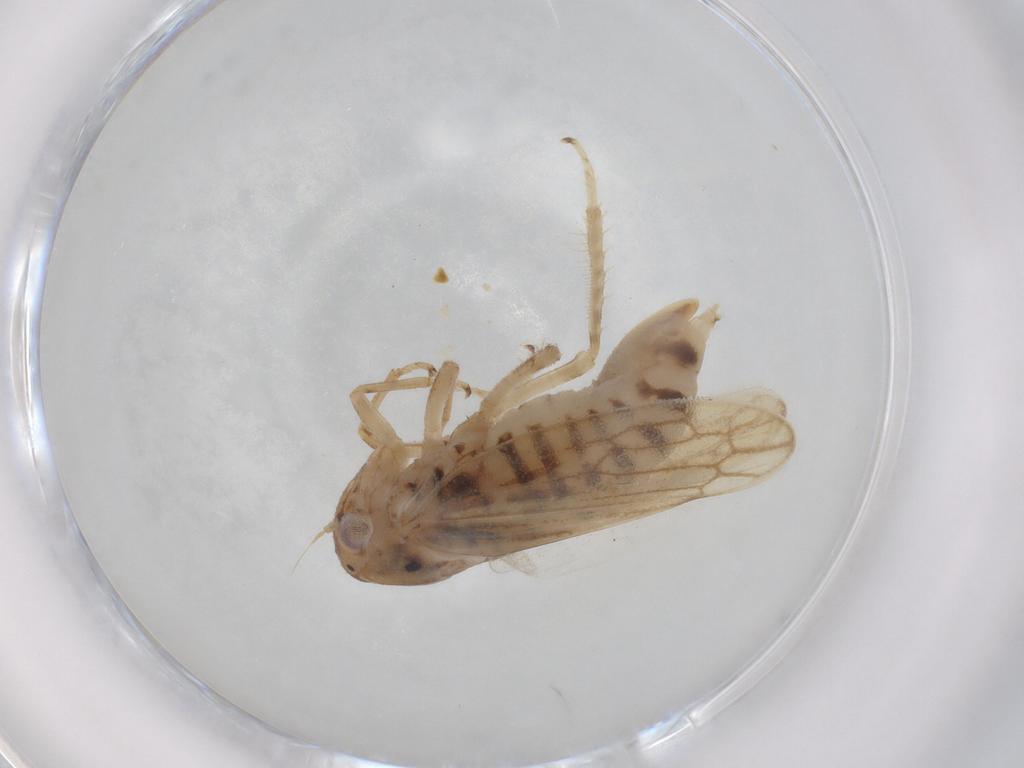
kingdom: Animalia
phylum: Arthropoda
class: Insecta
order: Hemiptera
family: Cicadellidae
